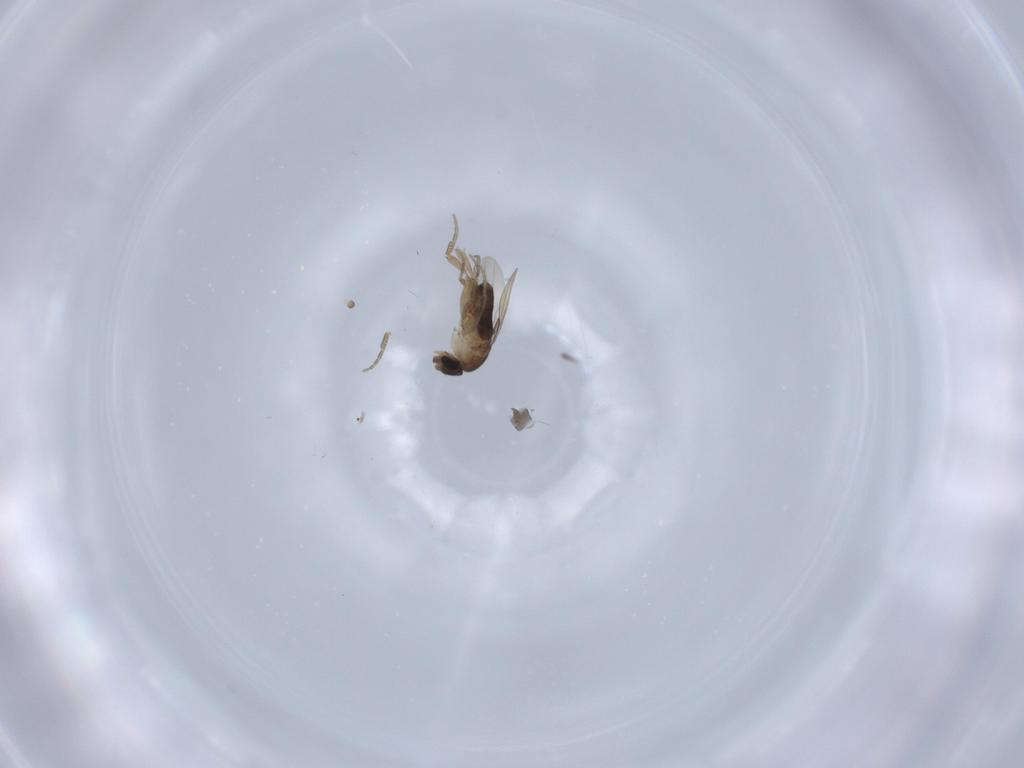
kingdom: Animalia
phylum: Arthropoda
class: Insecta
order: Diptera
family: Phoridae
